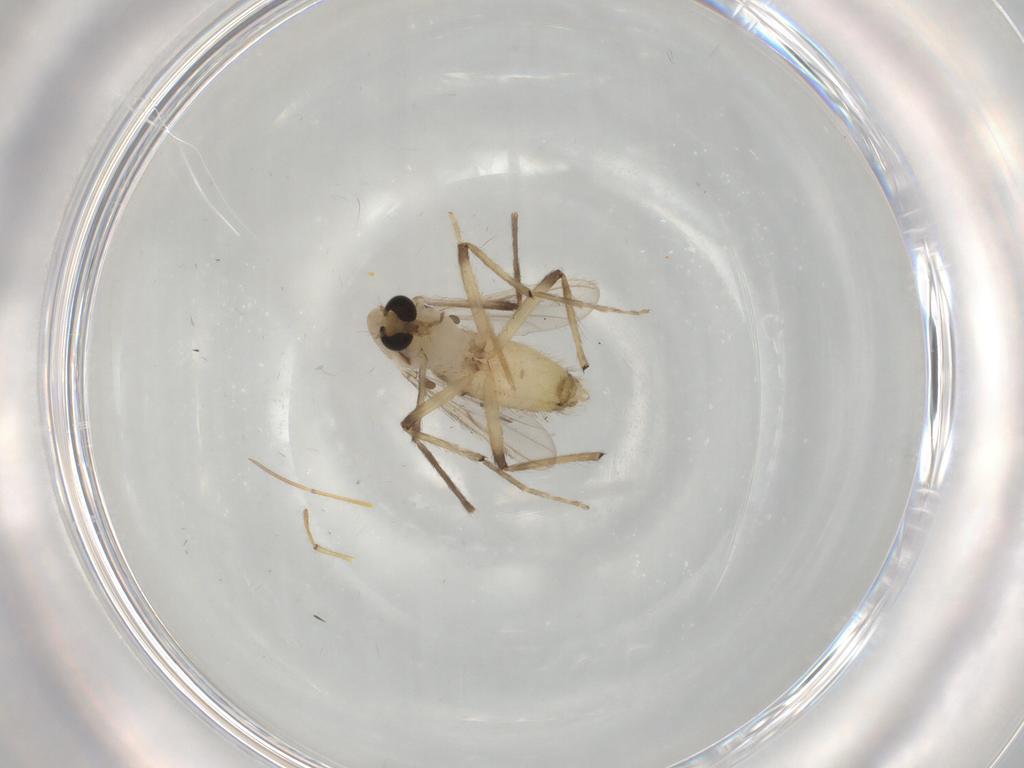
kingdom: Animalia
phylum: Arthropoda
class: Insecta
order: Diptera
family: Chironomidae
